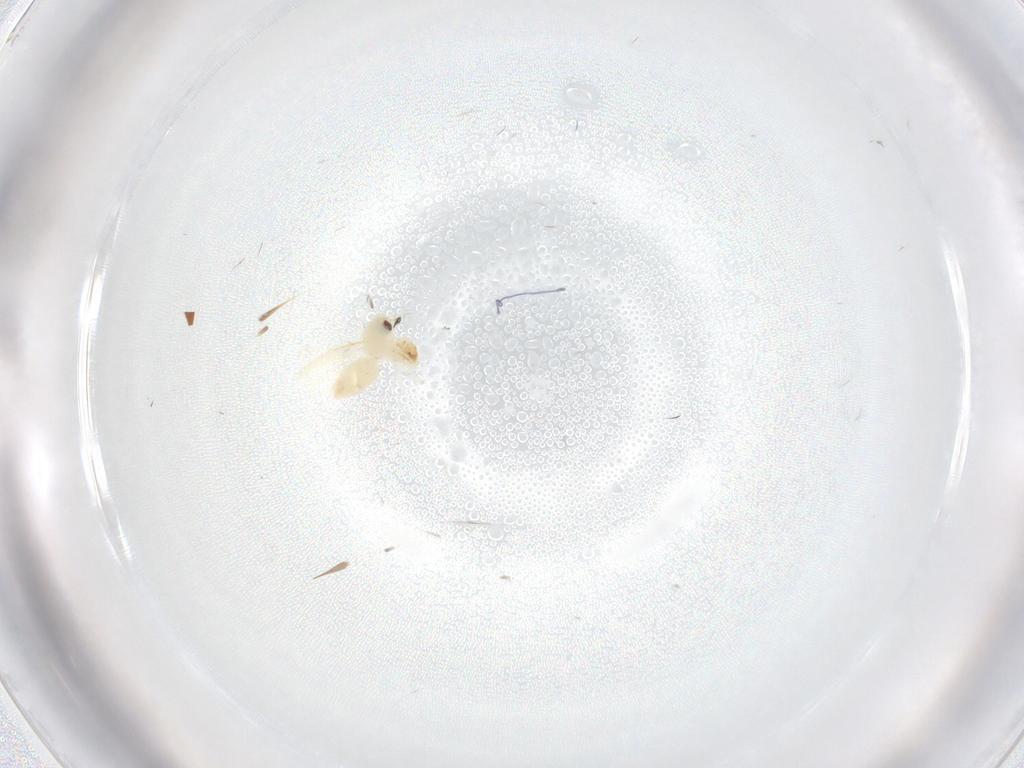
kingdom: Animalia
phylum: Arthropoda
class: Insecta
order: Hemiptera
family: Aleyrodidae
